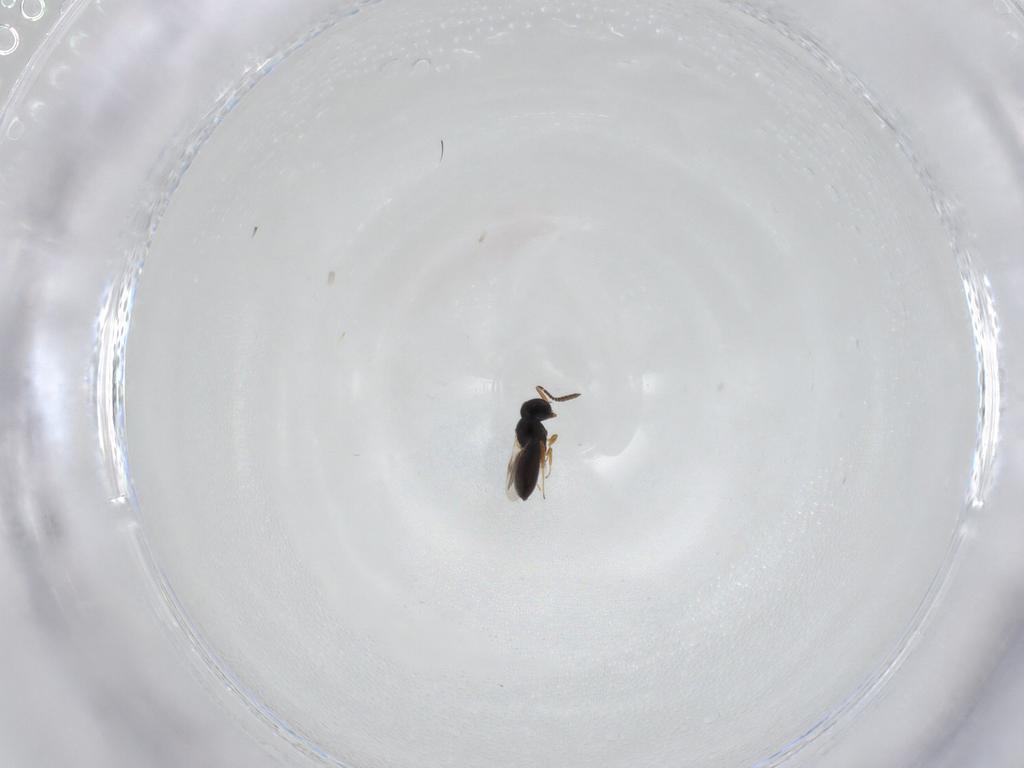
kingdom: Animalia
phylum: Arthropoda
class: Insecta
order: Hymenoptera
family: Scelionidae
